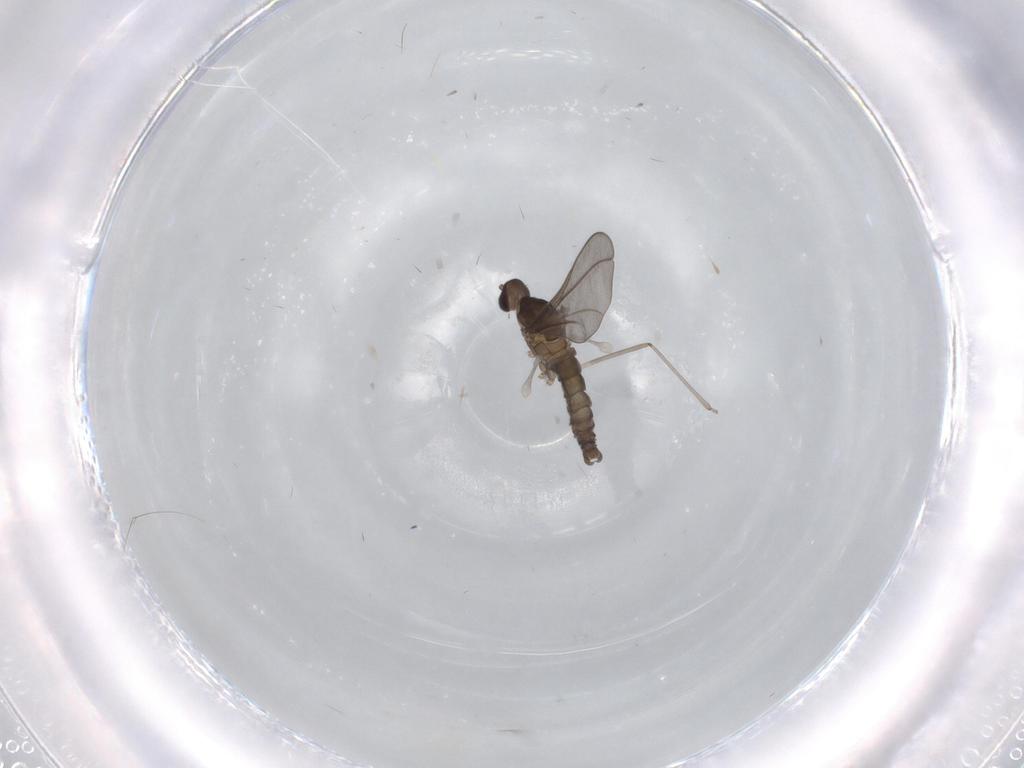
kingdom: Animalia
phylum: Arthropoda
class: Insecta
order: Diptera
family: Cecidomyiidae
